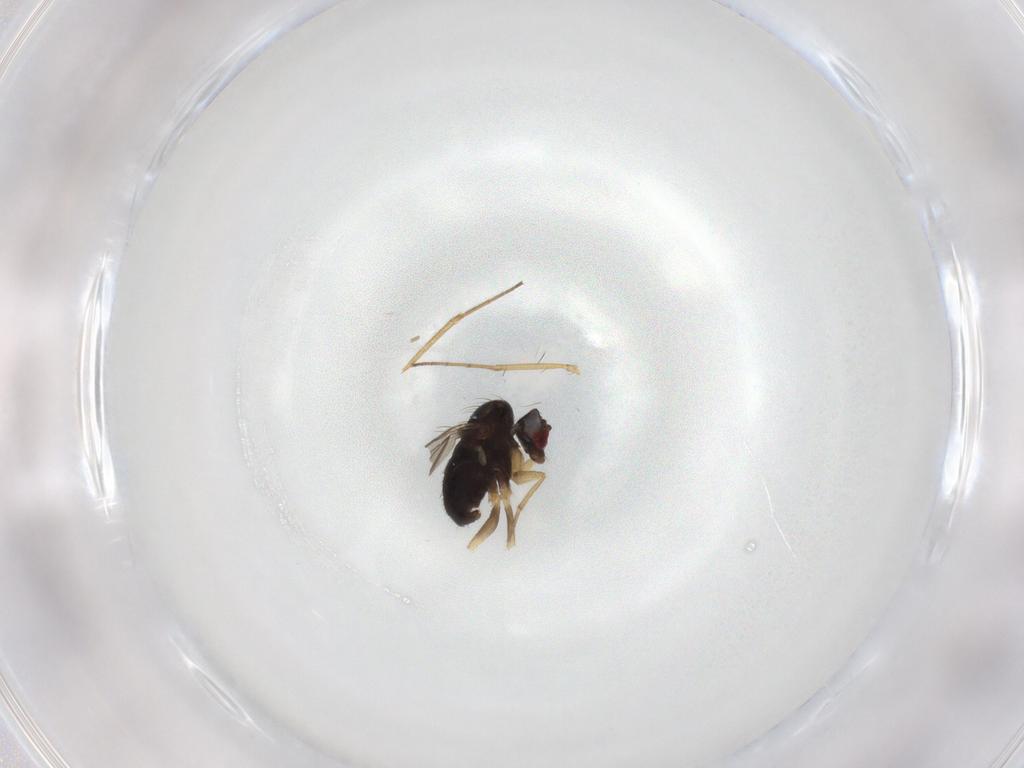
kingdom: Animalia
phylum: Arthropoda
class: Insecta
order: Diptera
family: Dolichopodidae
